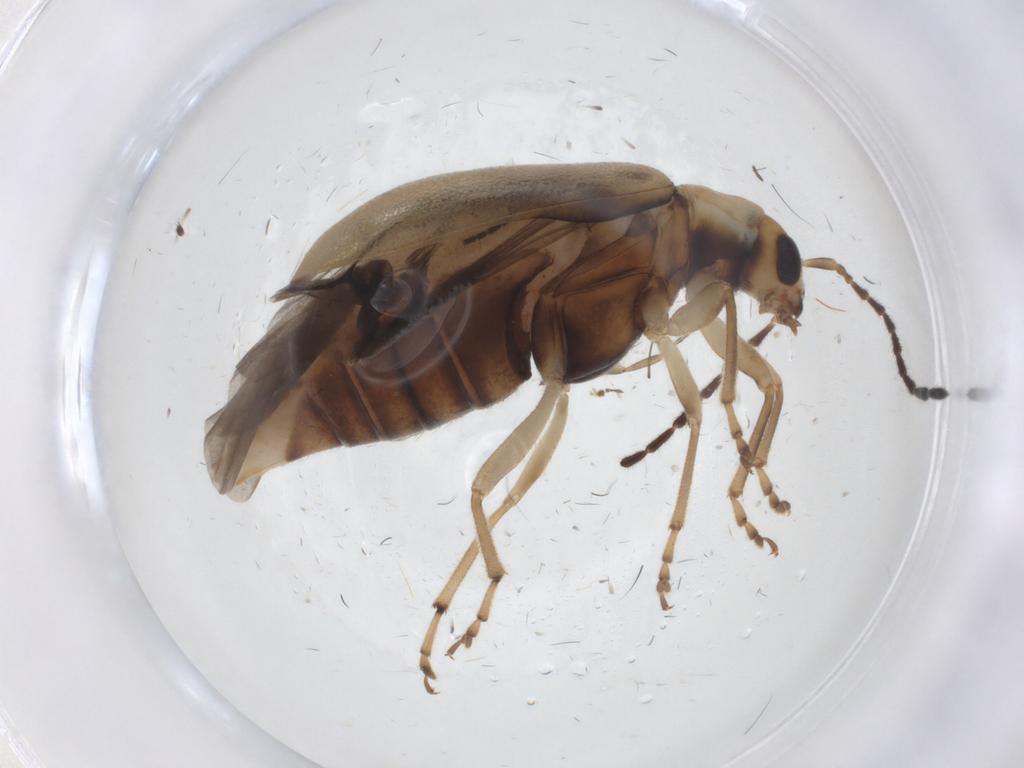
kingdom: Animalia
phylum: Arthropoda
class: Insecta
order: Coleoptera
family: Chrysomelidae
